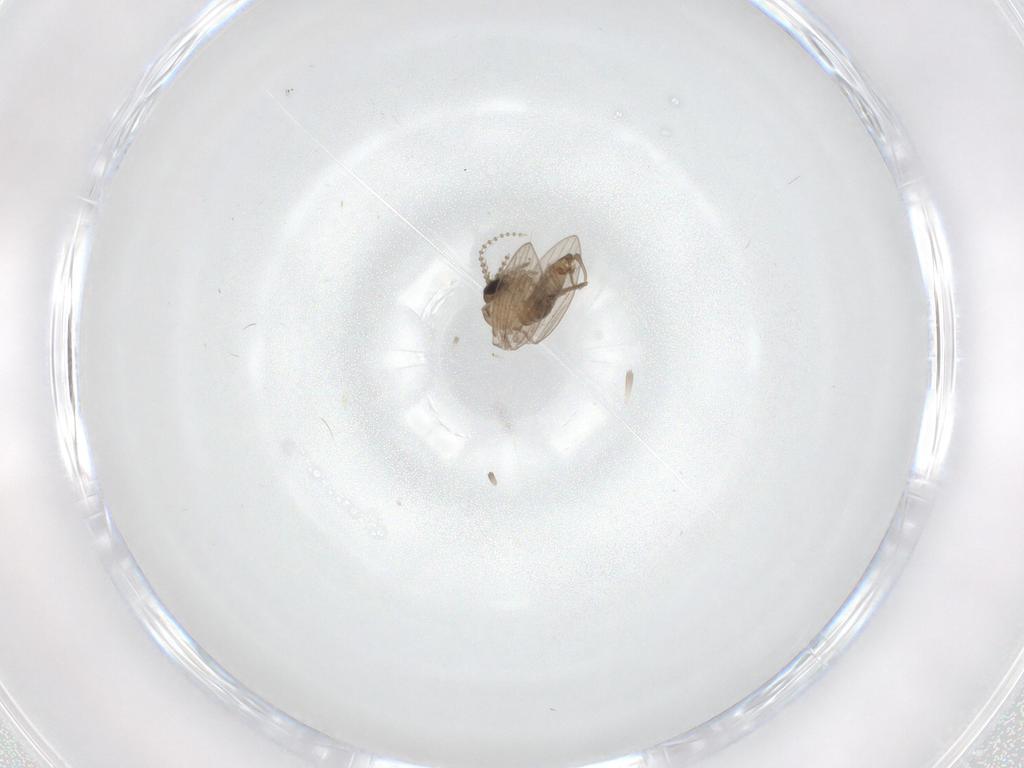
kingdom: Animalia
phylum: Arthropoda
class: Insecta
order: Diptera
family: Psychodidae
